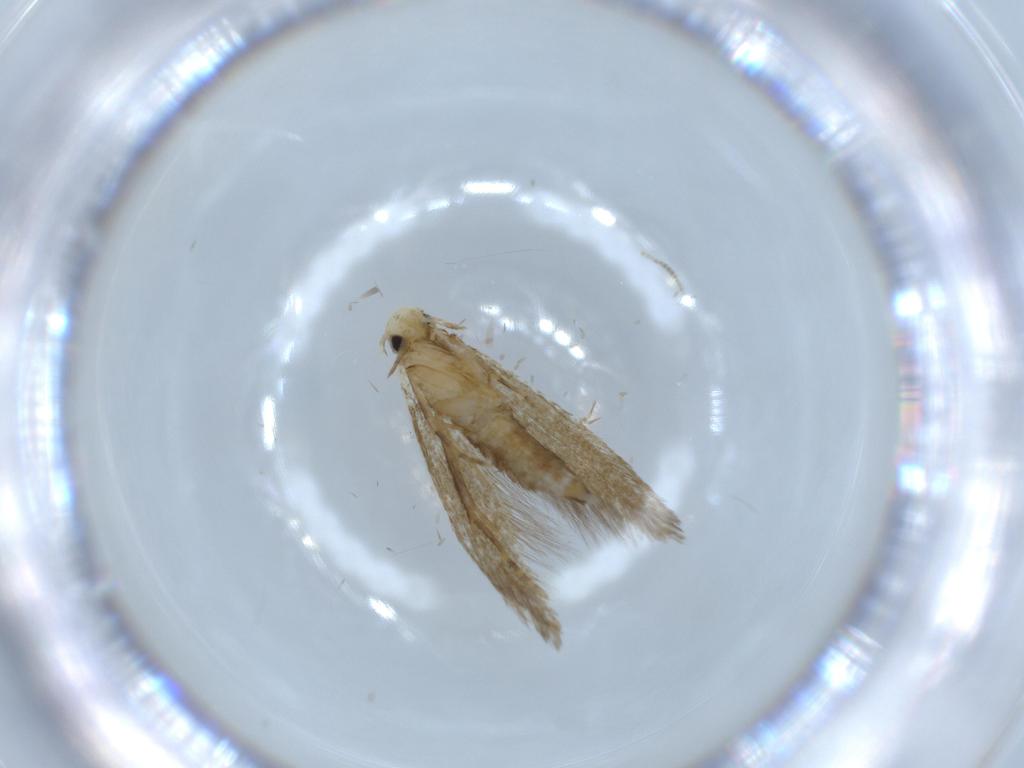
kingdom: Animalia
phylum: Arthropoda
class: Insecta
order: Lepidoptera
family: Tineidae
